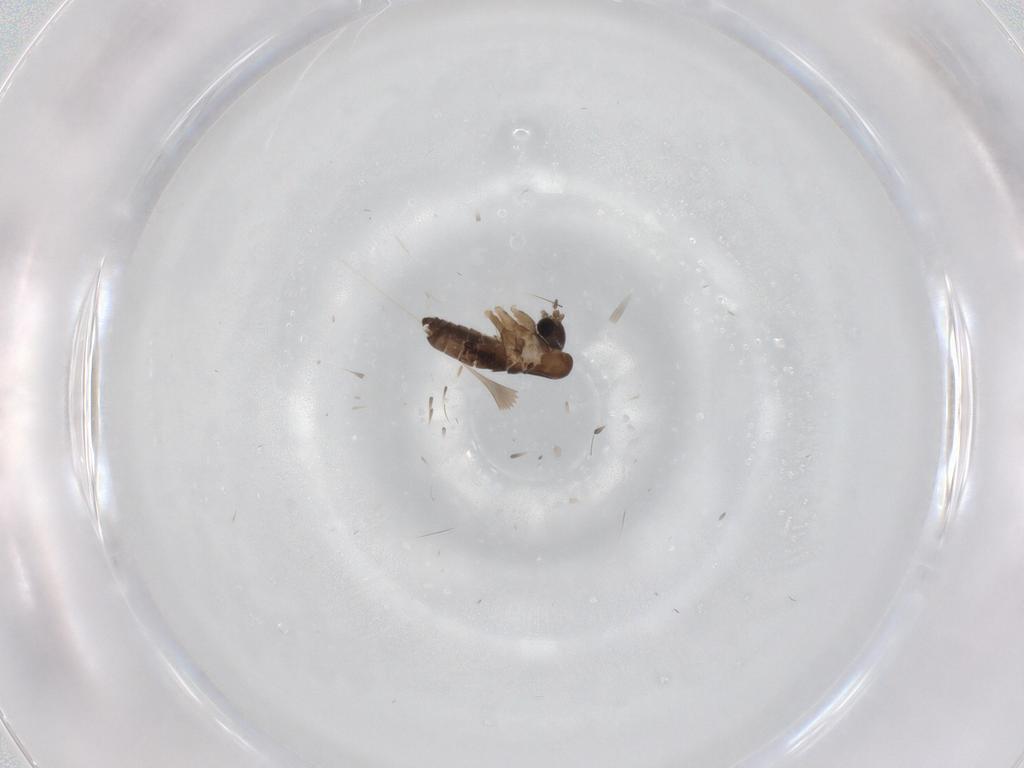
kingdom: Animalia
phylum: Arthropoda
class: Insecta
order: Diptera
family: Psychodidae
